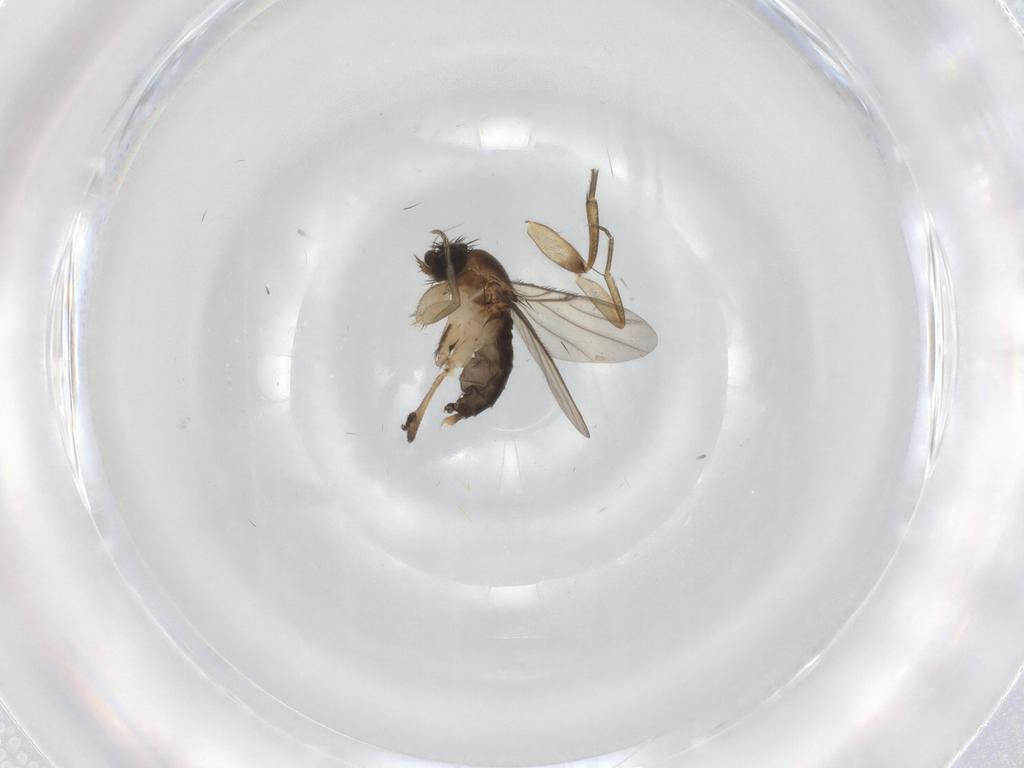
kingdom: Animalia
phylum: Arthropoda
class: Insecta
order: Diptera
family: Phoridae
